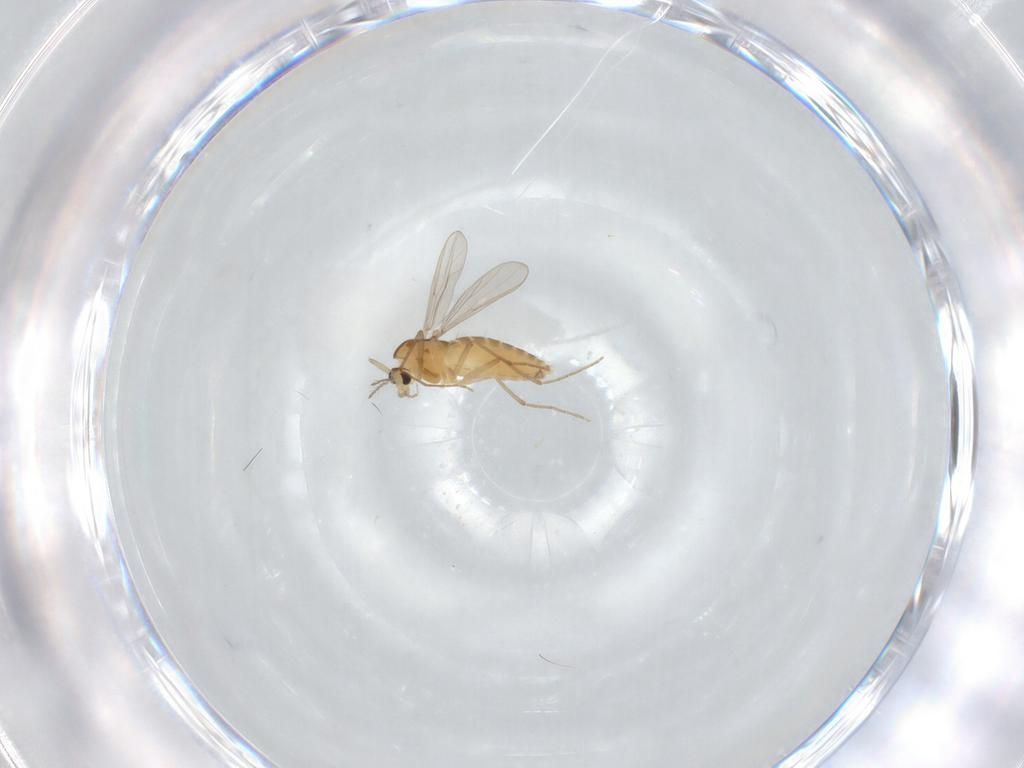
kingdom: Animalia
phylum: Arthropoda
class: Insecta
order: Diptera
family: Chironomidae
